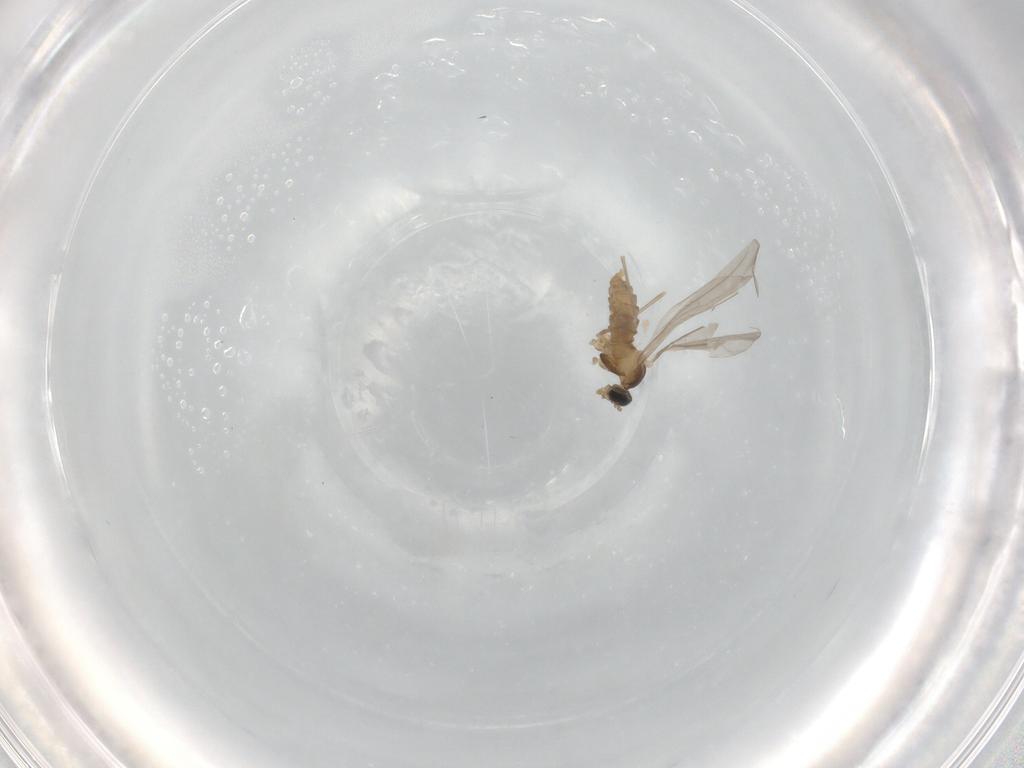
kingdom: Animalia
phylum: Arthropoda
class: Insecta
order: Diptera
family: Cecidomyiidae
